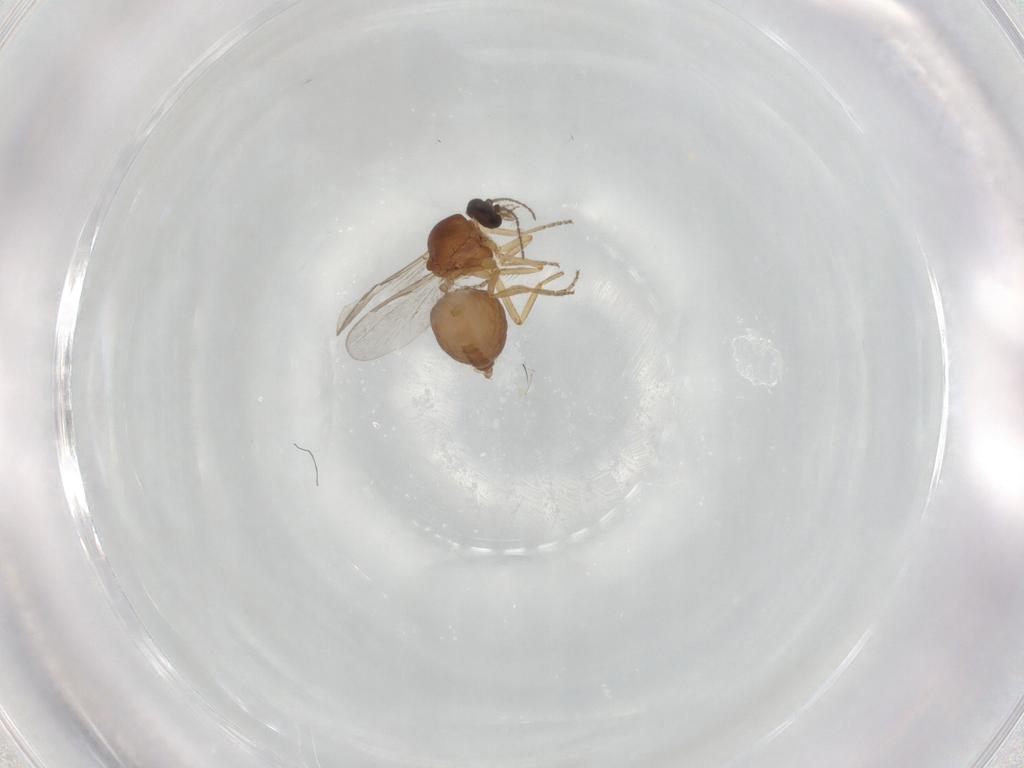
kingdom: Animalia
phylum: Arthropoda
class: Insecta
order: Diptera
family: Ceratopogonidae
